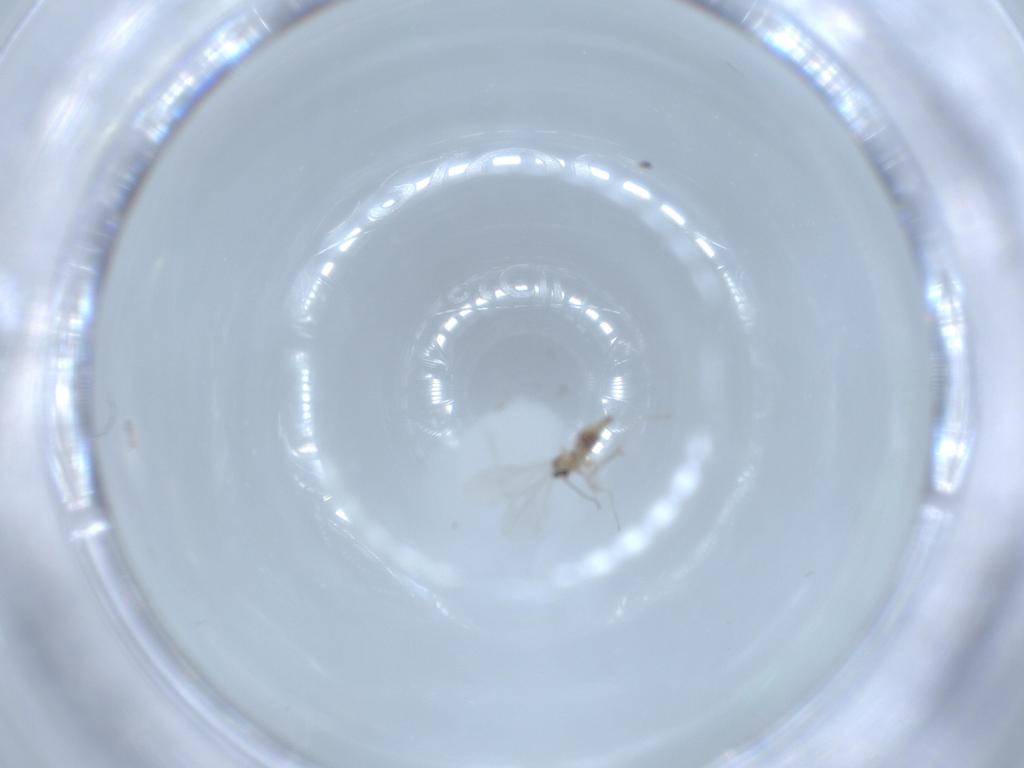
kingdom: Animalia
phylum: Arthropoda
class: Insecta
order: Diptera
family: Cecidomyiidae
